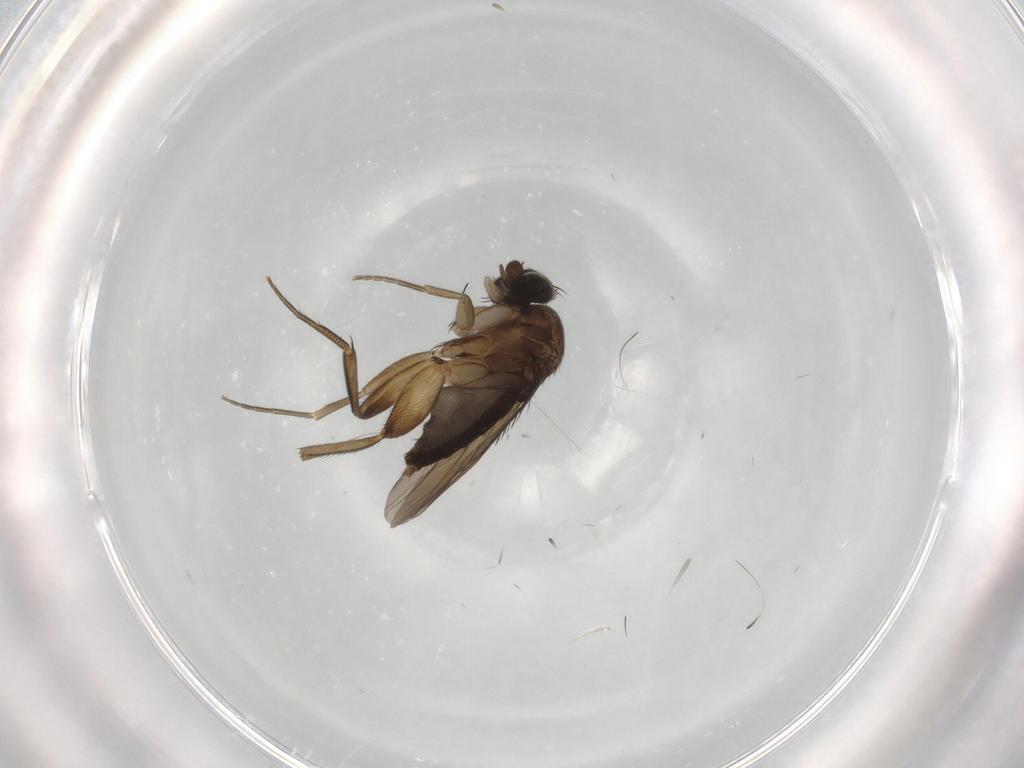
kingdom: Animalia
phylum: Arthropoda
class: Insecta
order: Diptera
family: Phoridae
